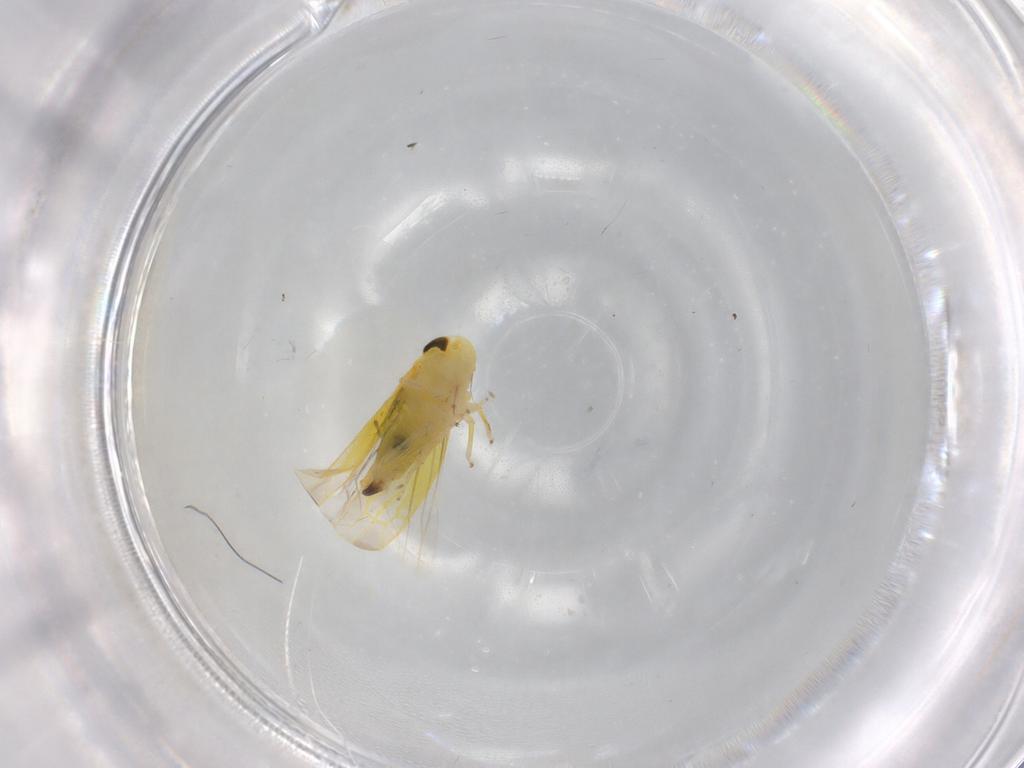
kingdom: Animalia
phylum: Arthropoda
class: Insecta
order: Hemiptera
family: Cicadellidae
